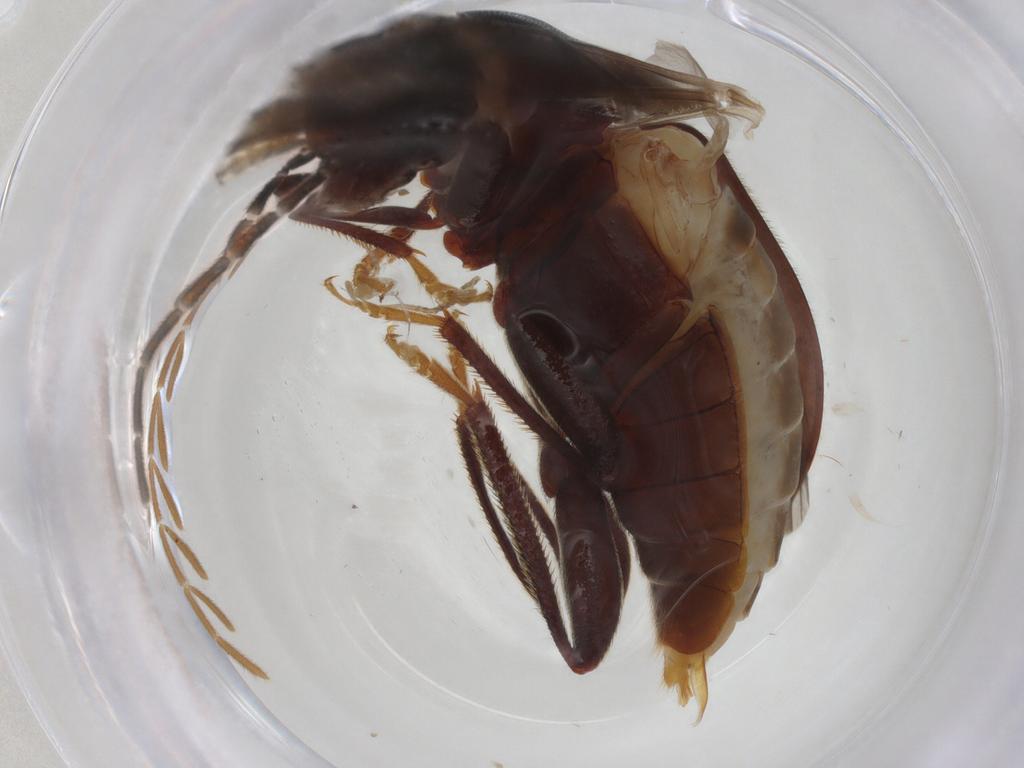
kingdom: Animalia
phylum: Arthropoda
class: Insecta
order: Coleoptera
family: Ptilodactylidae
